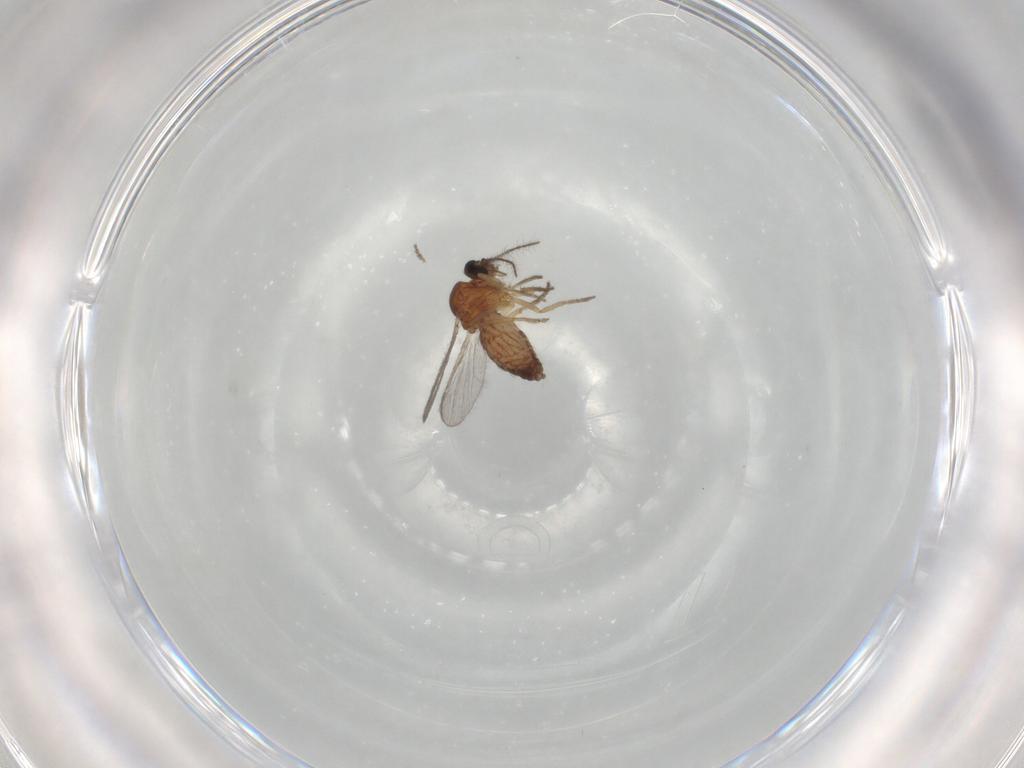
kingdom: Animalia
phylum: Arthropoda
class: Insecta
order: Diptera
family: Ceratopogonidae
